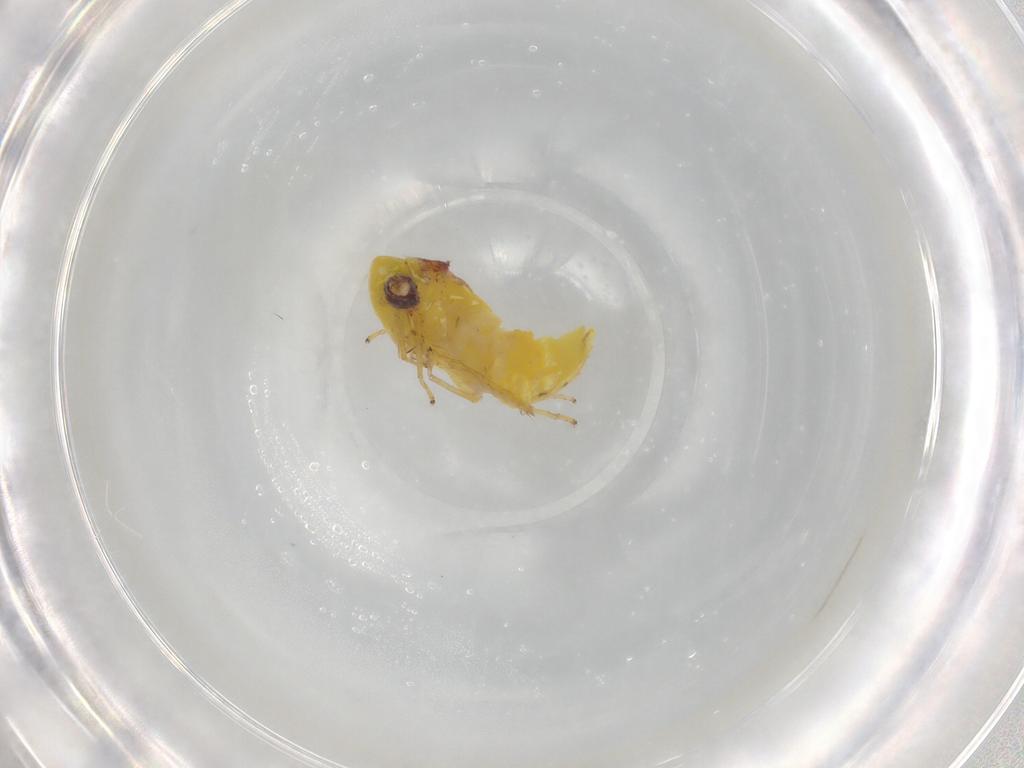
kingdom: Animalia
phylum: Arthropoda
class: Insecta
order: Hemiptera
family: Cicadellidae
